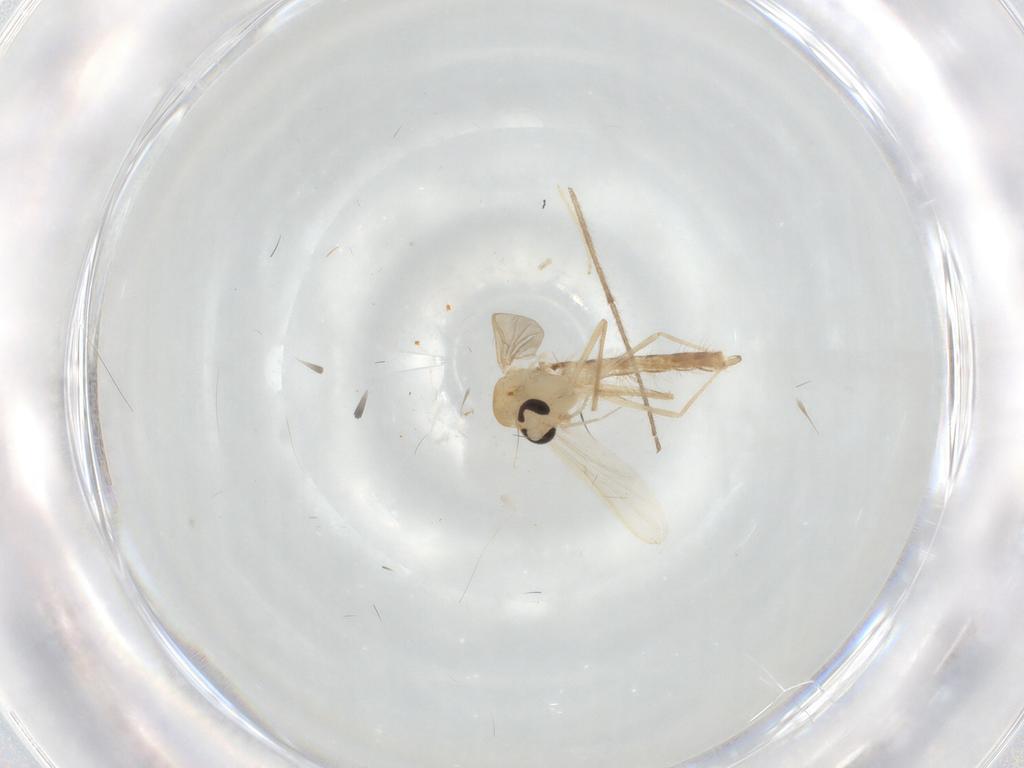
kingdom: Animalia
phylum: Arthropoda
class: Insecta
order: Diptera
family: Chironomidae
